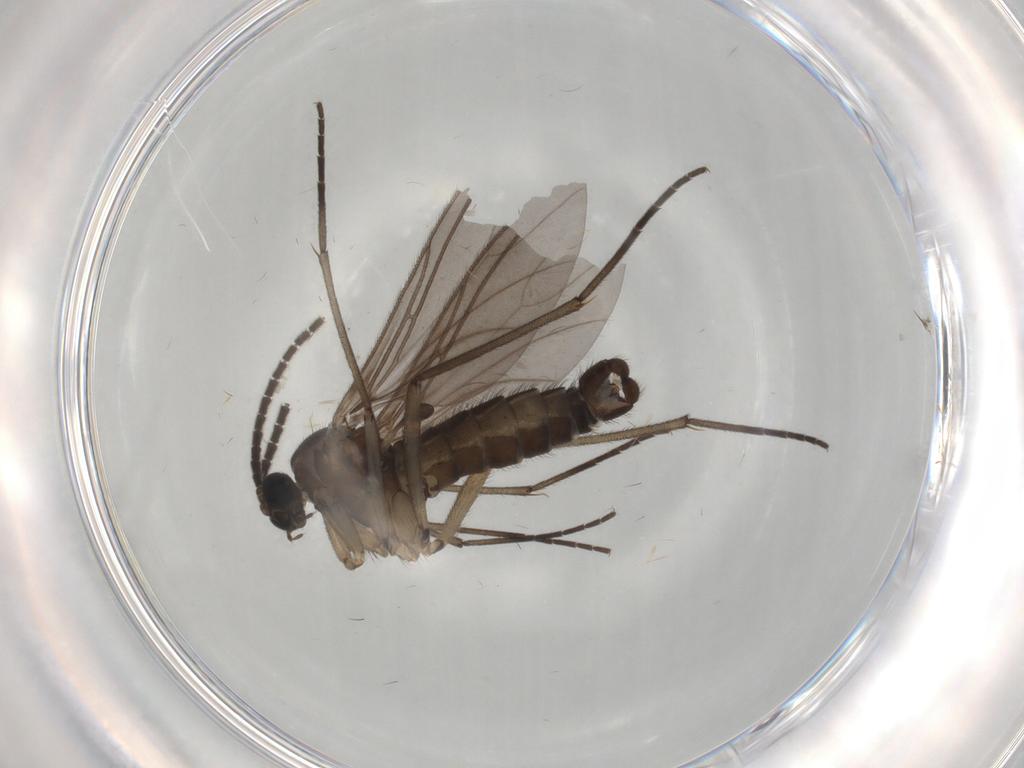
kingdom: Animalia
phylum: Arthropoda
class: Insecta
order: Diptera
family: Sciaridae
